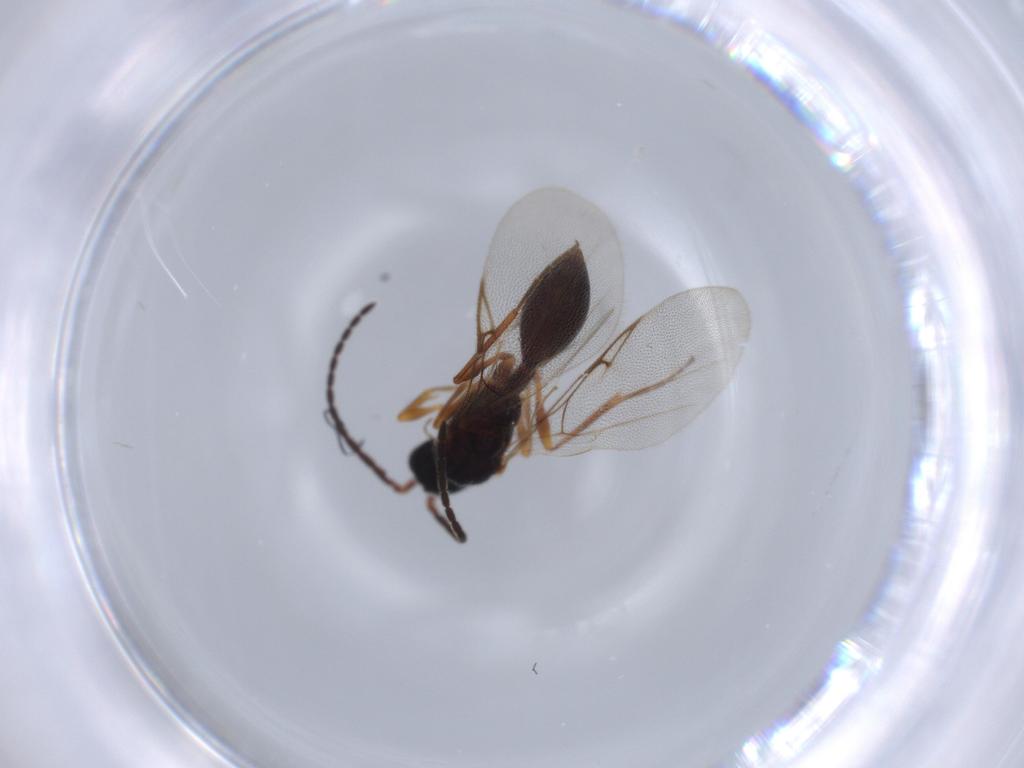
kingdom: Animalia
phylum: Arthropoda
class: Insecta
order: Hymenoptera
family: Diapriidae
